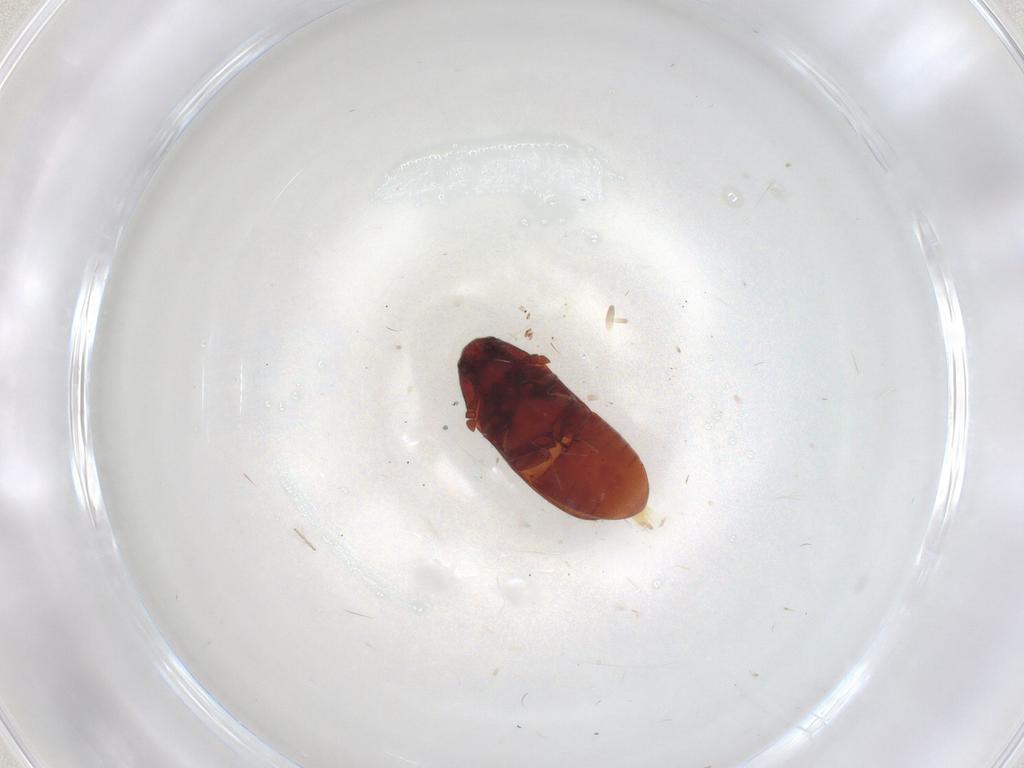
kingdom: Animalia
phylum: Arthropoda
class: Insecta
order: Coleoptera
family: Throscidae
